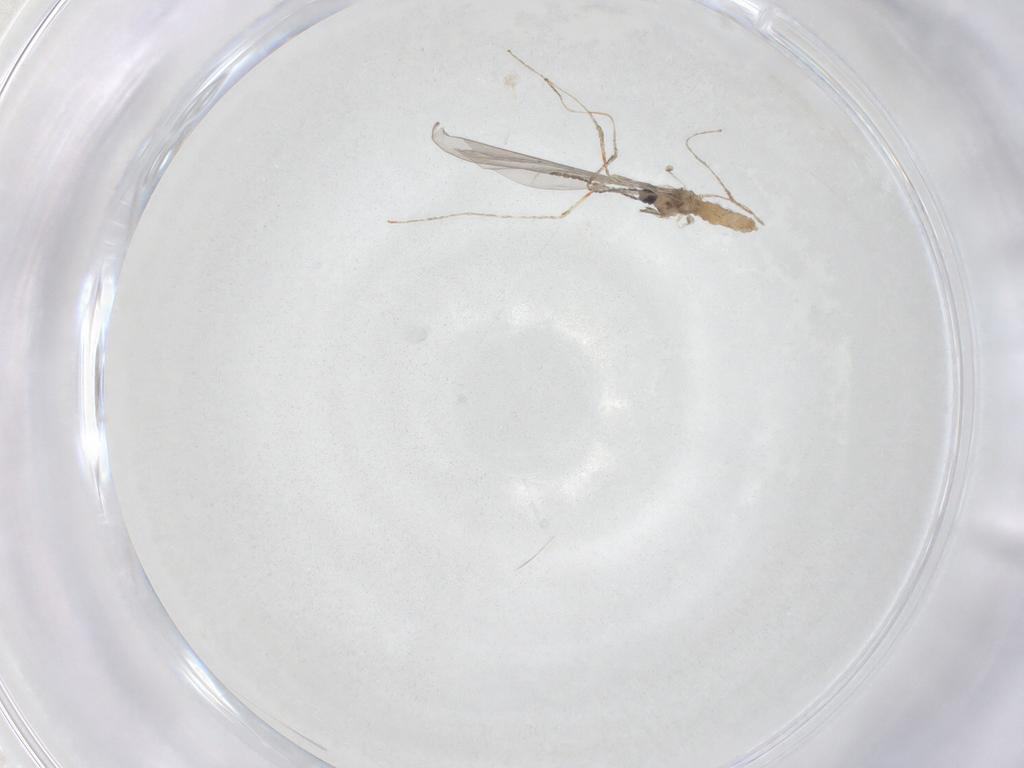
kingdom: Animalia
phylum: Arthropoda
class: Insecta
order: Diptera
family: Cecidomyiidae
